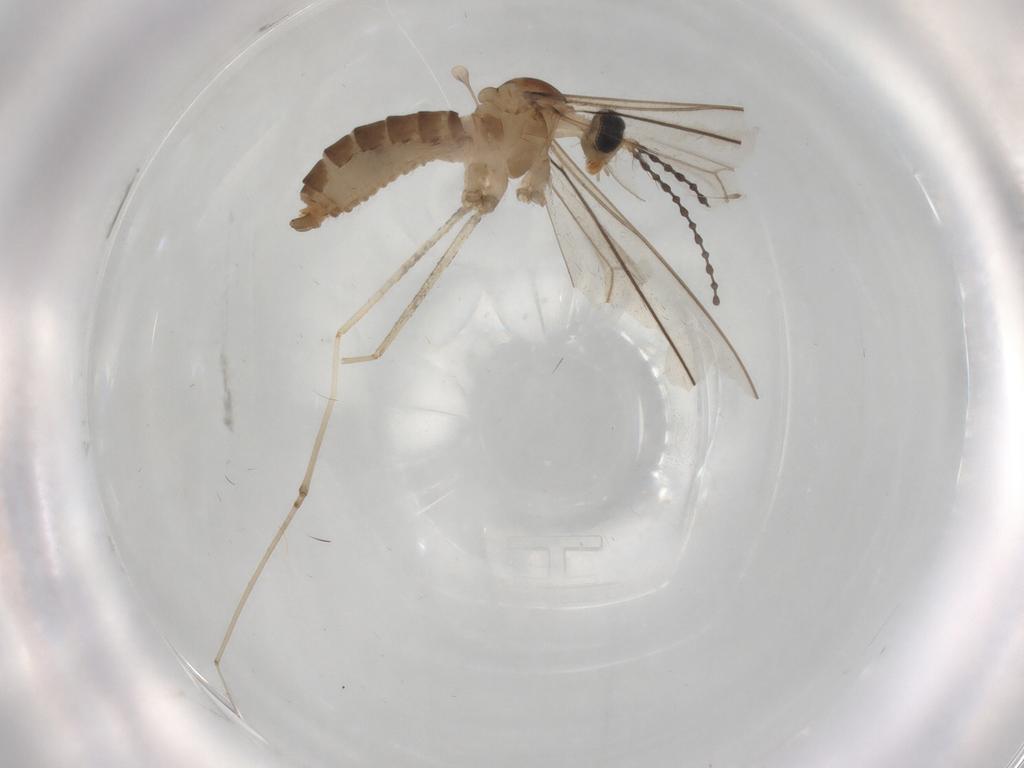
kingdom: Animalia
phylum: Arthropoda
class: Insecta
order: Diptera
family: Cecidomyiidae
